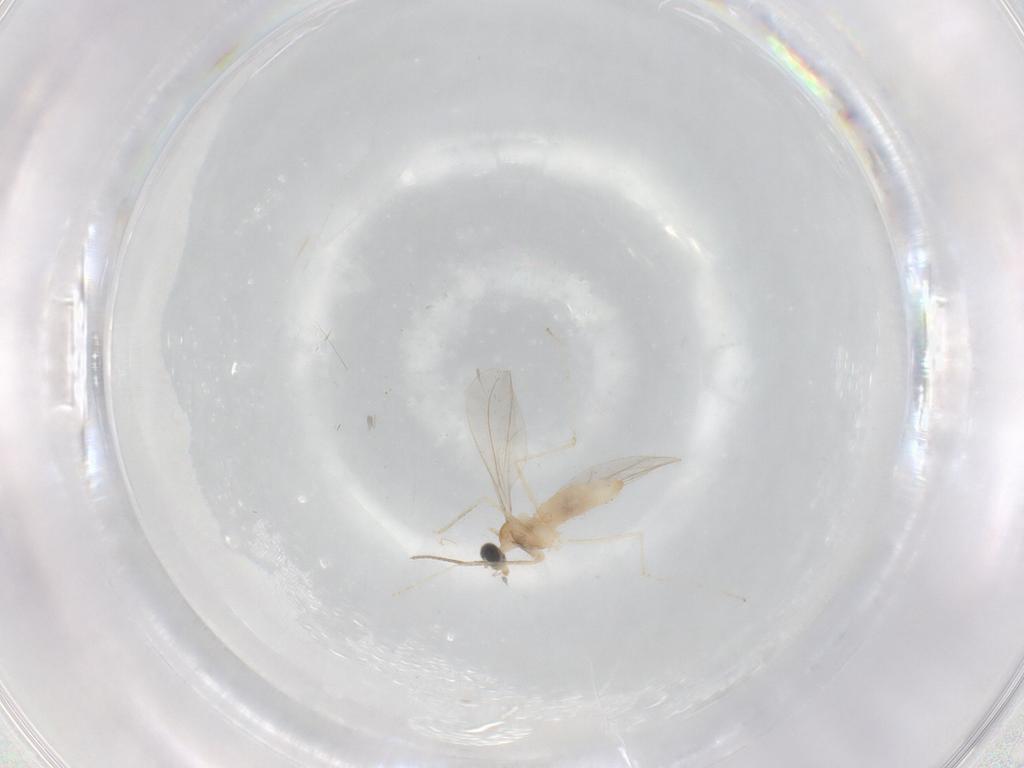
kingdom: Animalia
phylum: Arthropoda
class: Insecta
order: Diptera
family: Cecidomyiidae
